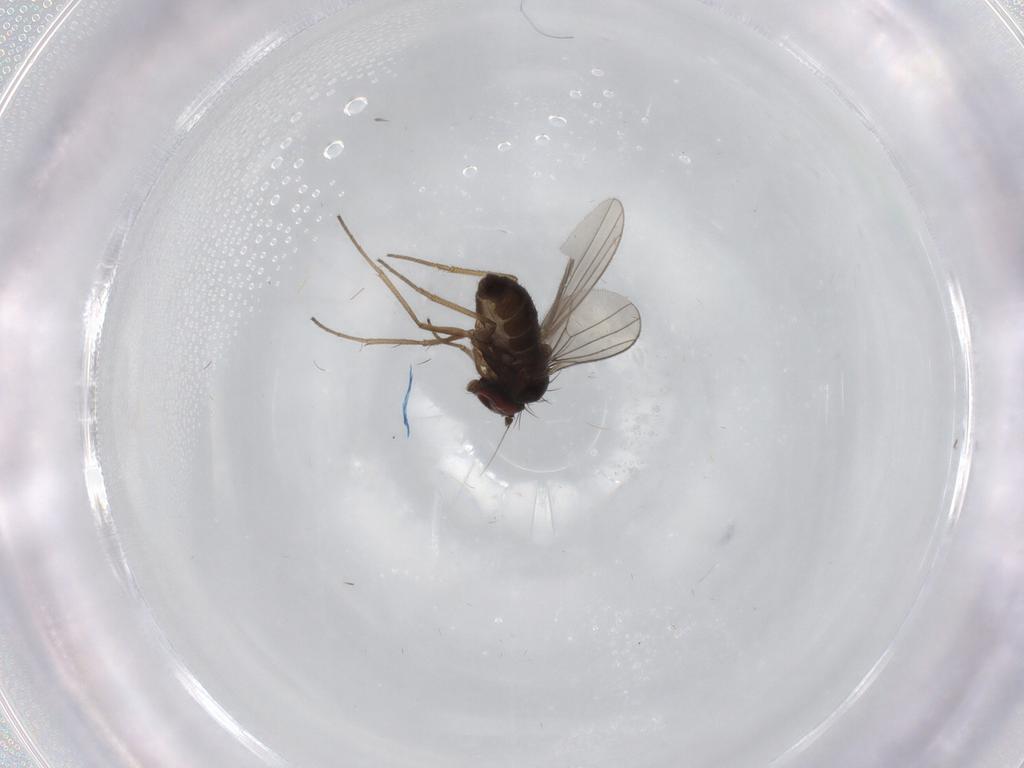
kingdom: Animalia
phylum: Arthropoda
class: Insecta
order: Diptera
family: Dolichopodidae
